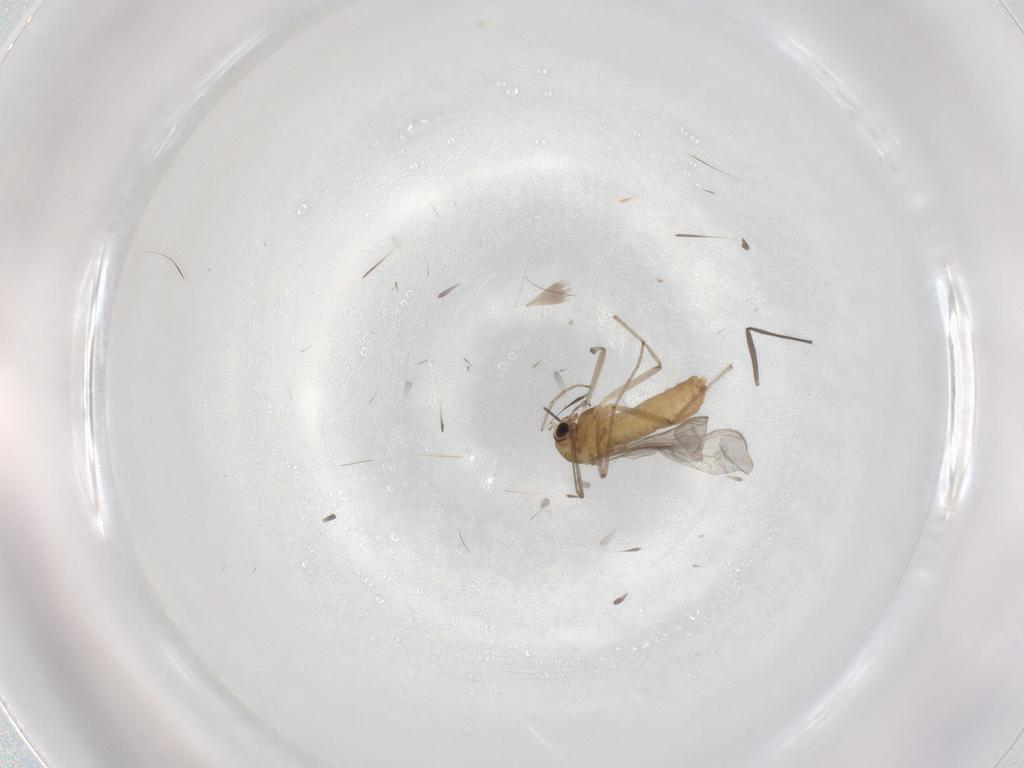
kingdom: Animalia
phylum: Arthropoda
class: Insecta
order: Diptera
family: Chironomidae
